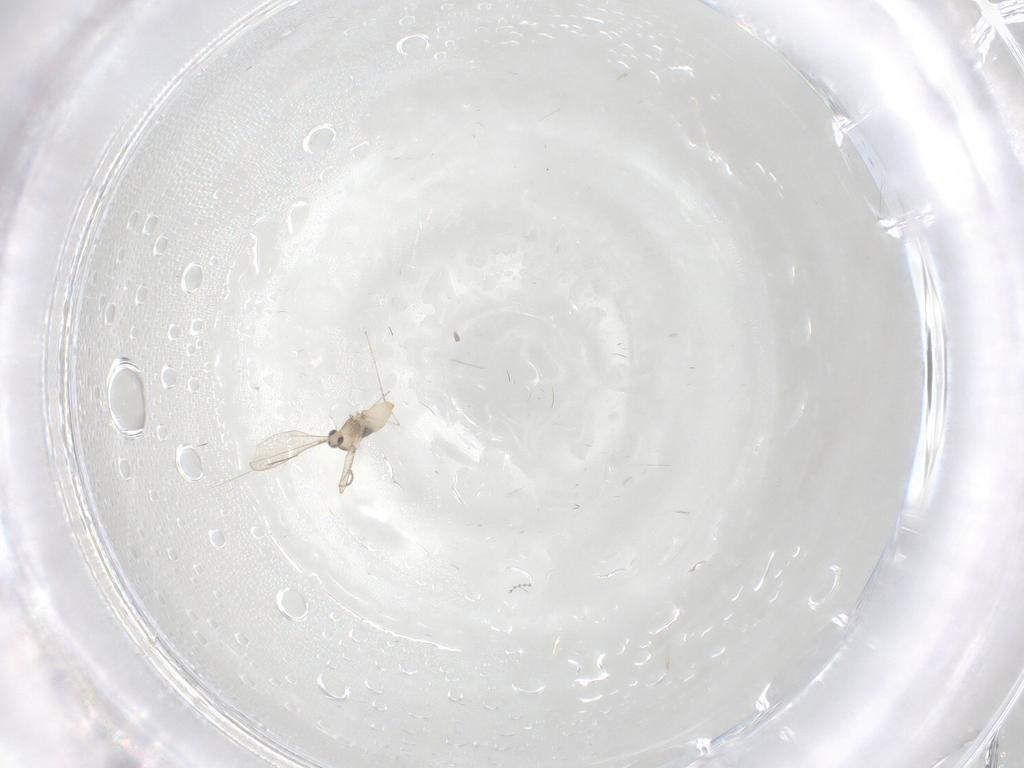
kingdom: Animalia
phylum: Arthropoda
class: Insecta
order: Diptera
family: Cecidomyiidae
